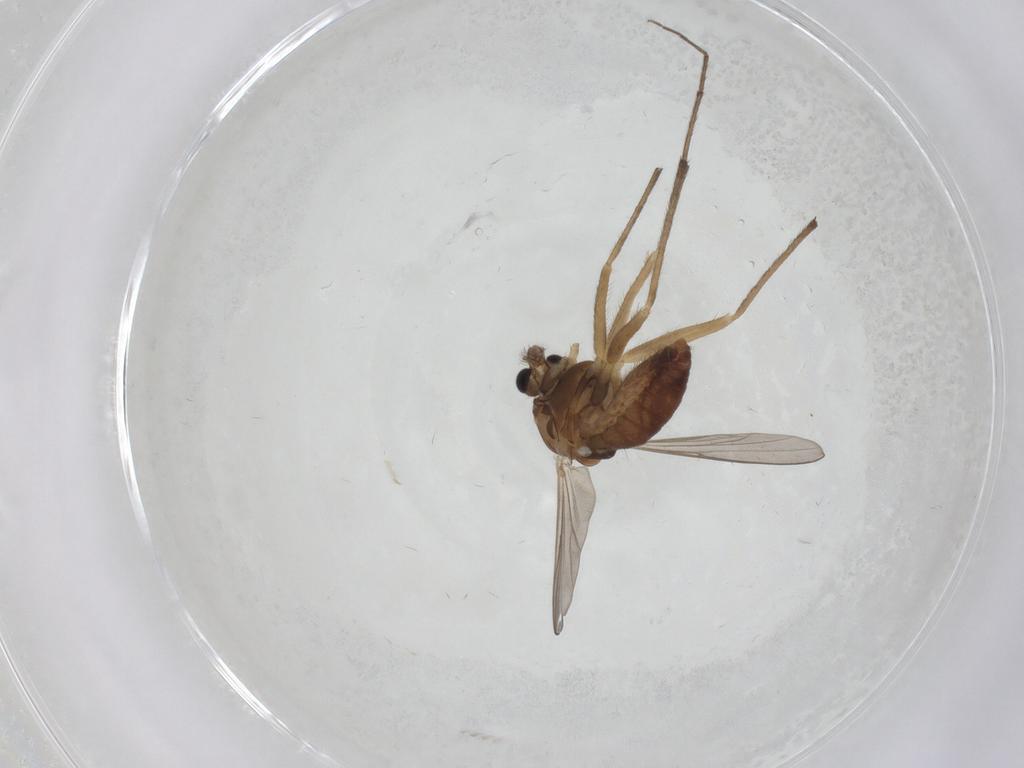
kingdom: Animalia
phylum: Arthropoda
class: Insecta
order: Diptera
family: Chironomidae
